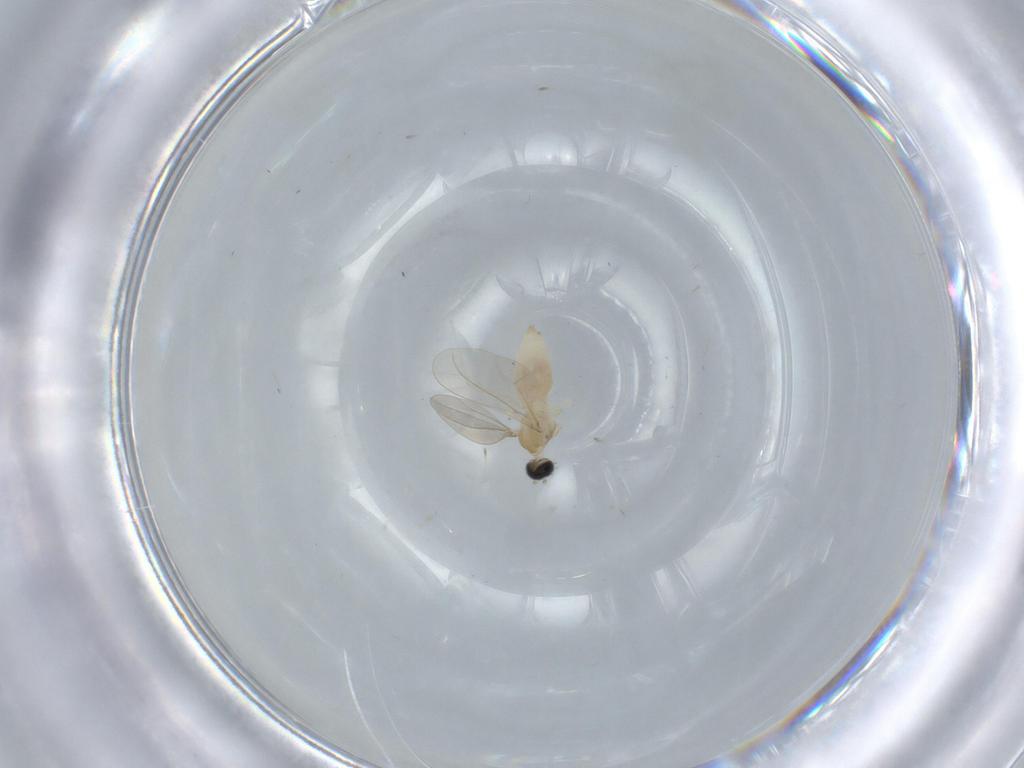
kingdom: Animalia
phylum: Arthropoda
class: Insecta
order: Diptera
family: Cecidomyiidae
